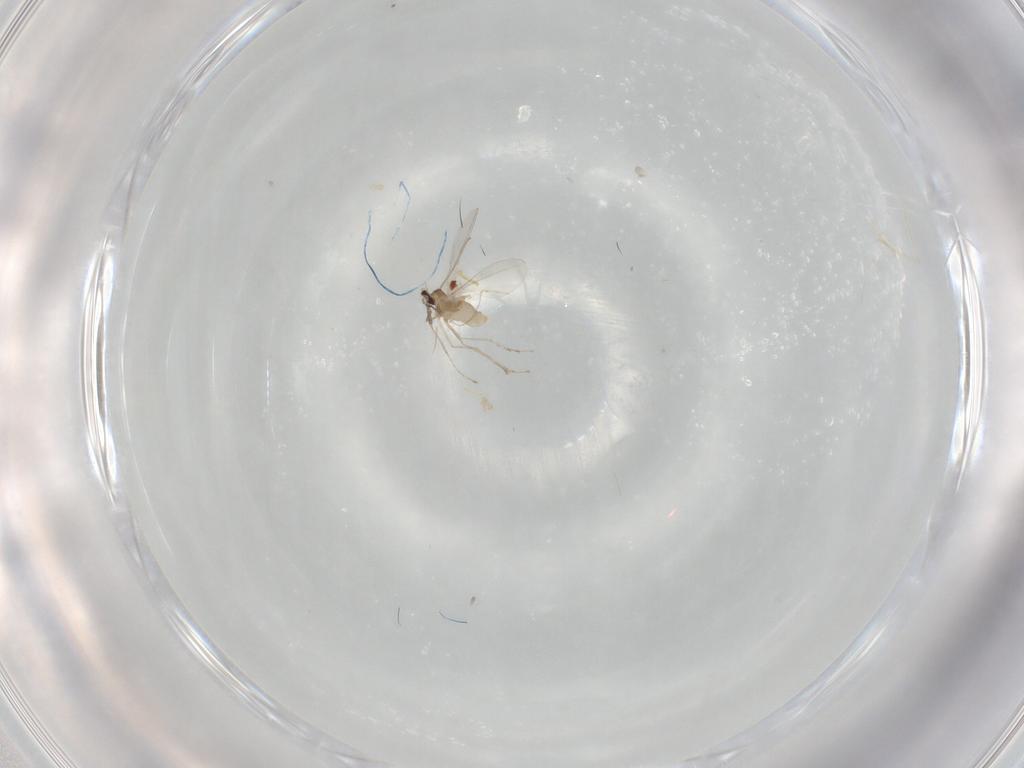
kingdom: Animalia
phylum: Arthropoda
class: Insecta
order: Diptera
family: Cecidomyiidae
